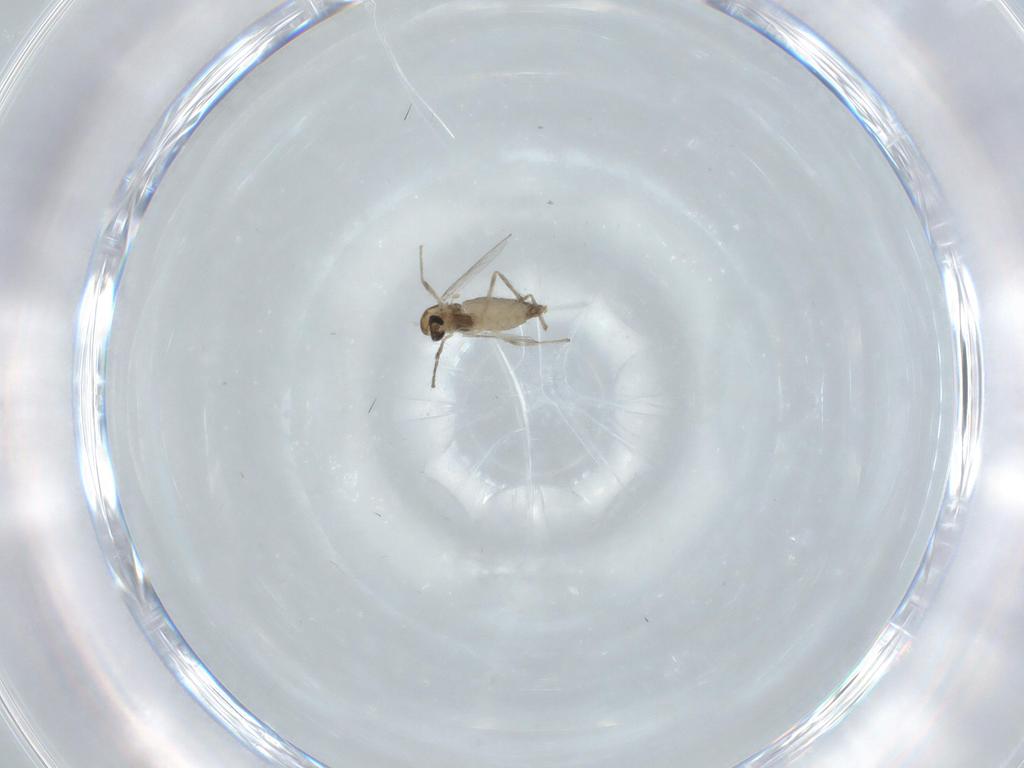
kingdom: Animalia
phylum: Arthropoda
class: Insecta
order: Diptera
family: Chironomidae
